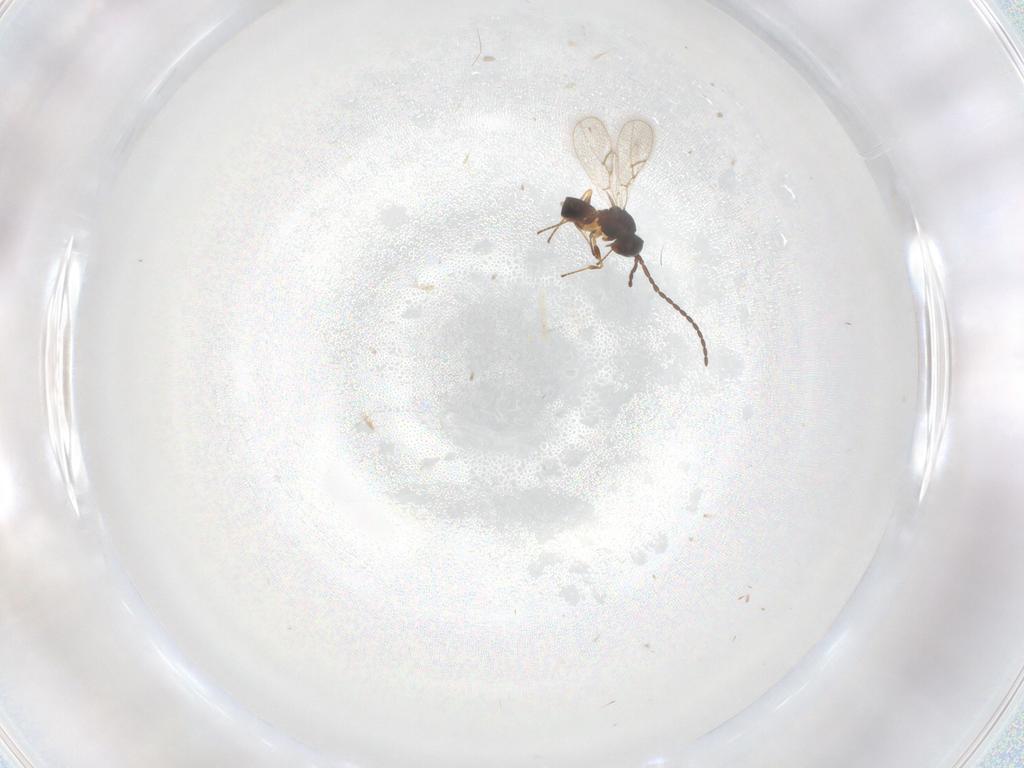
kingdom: Animalia
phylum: Arthropoda
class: Insecta
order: Hymenoptera
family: Figitidae
